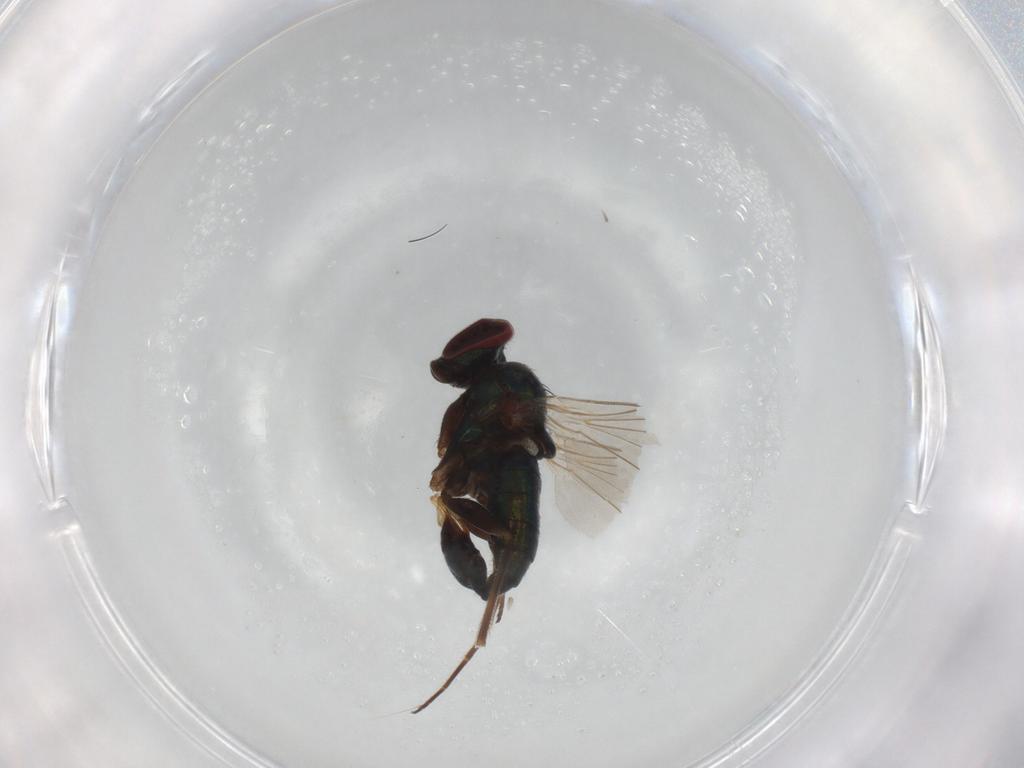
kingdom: Animalia
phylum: Arthropoda
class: Insecta
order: Diptera
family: Dolichopodidae
